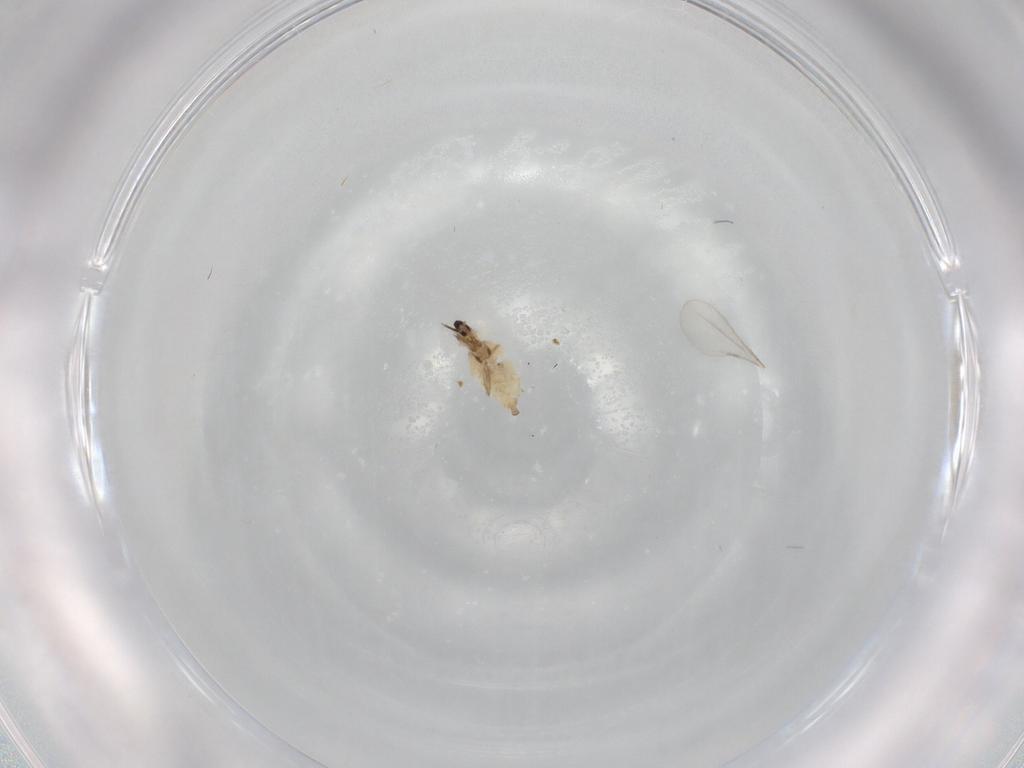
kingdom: Animalia
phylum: Arthropoda
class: Insecta
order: Diptera
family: Cecidomyiidae
